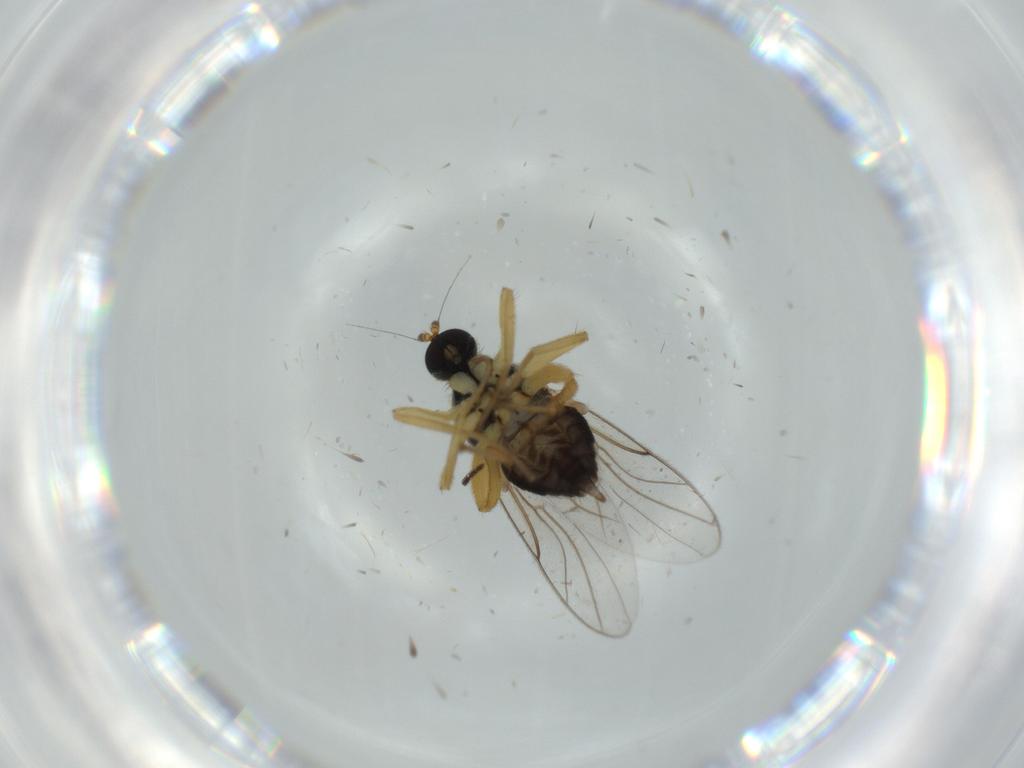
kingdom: Animalia
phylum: Arthropoda
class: Insecta
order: Diptera
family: Hybotidae
